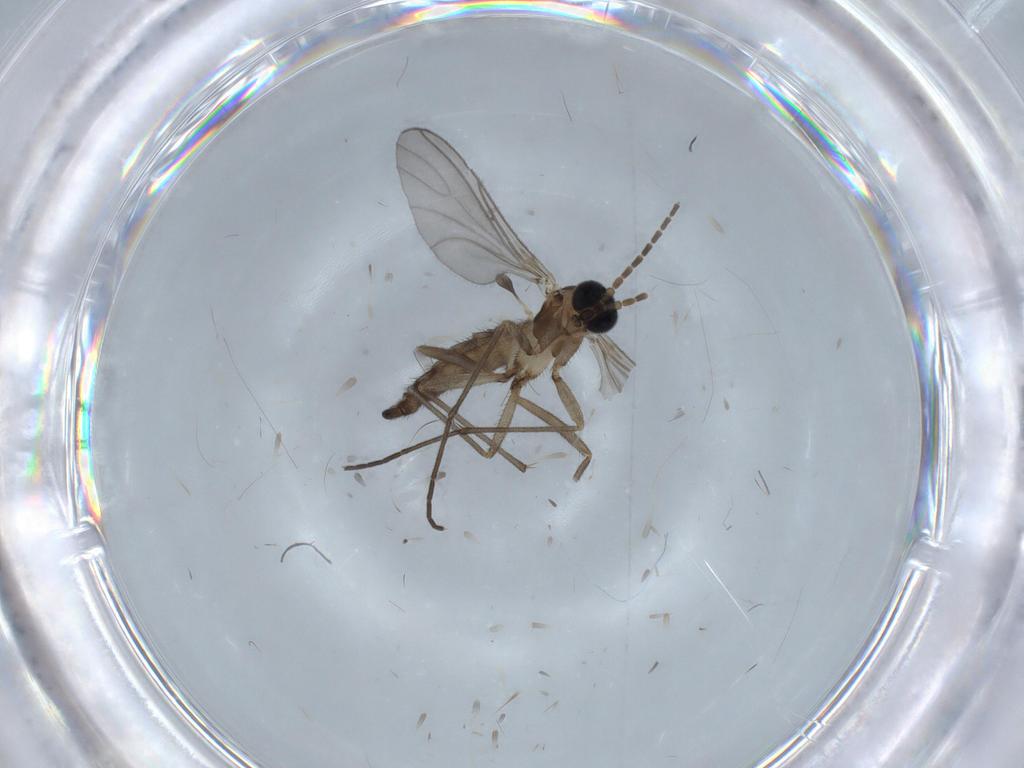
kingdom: Animalia
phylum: Arthropoda
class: Insecta
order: Diptera
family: Sciaridae
